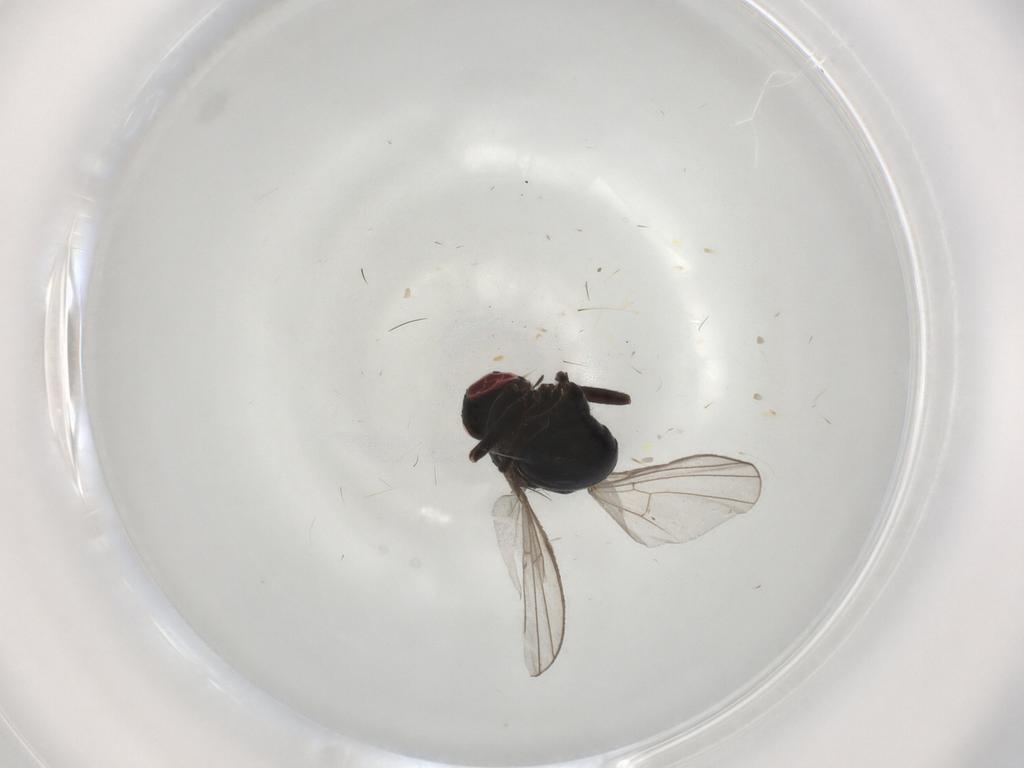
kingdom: Animalia
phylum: Arthropoda
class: Insecta
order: Diptera
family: Agromyzidae
